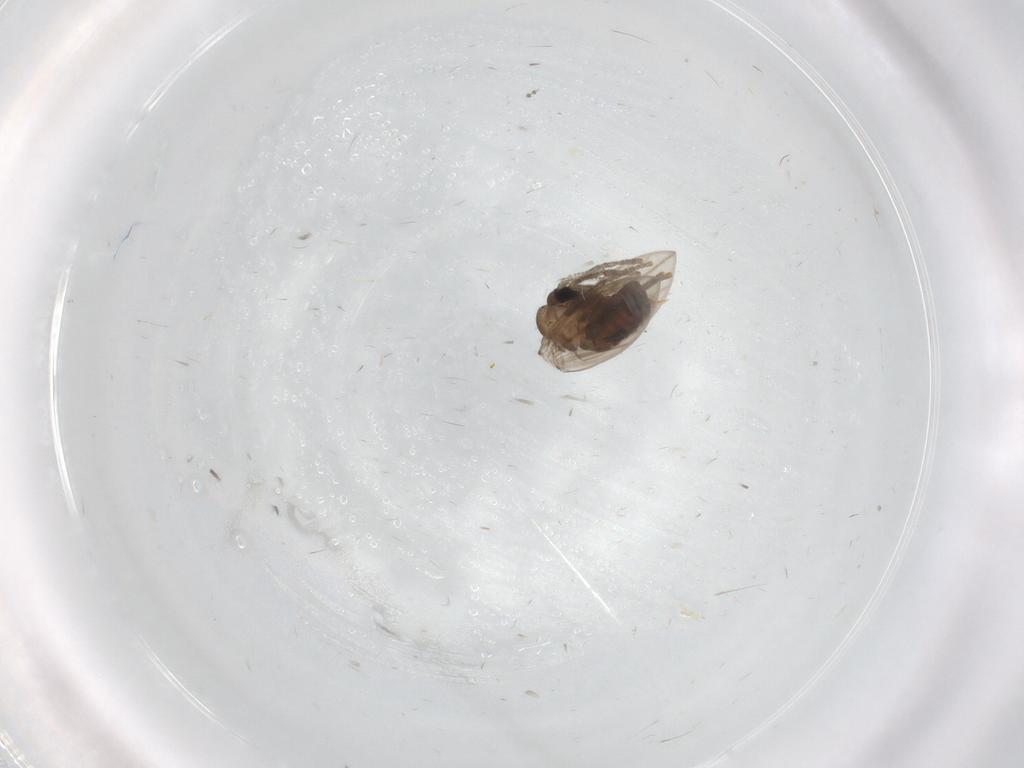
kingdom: Animalia
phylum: Arthropoda
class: Insecta
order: Diptera
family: Psychodidae
